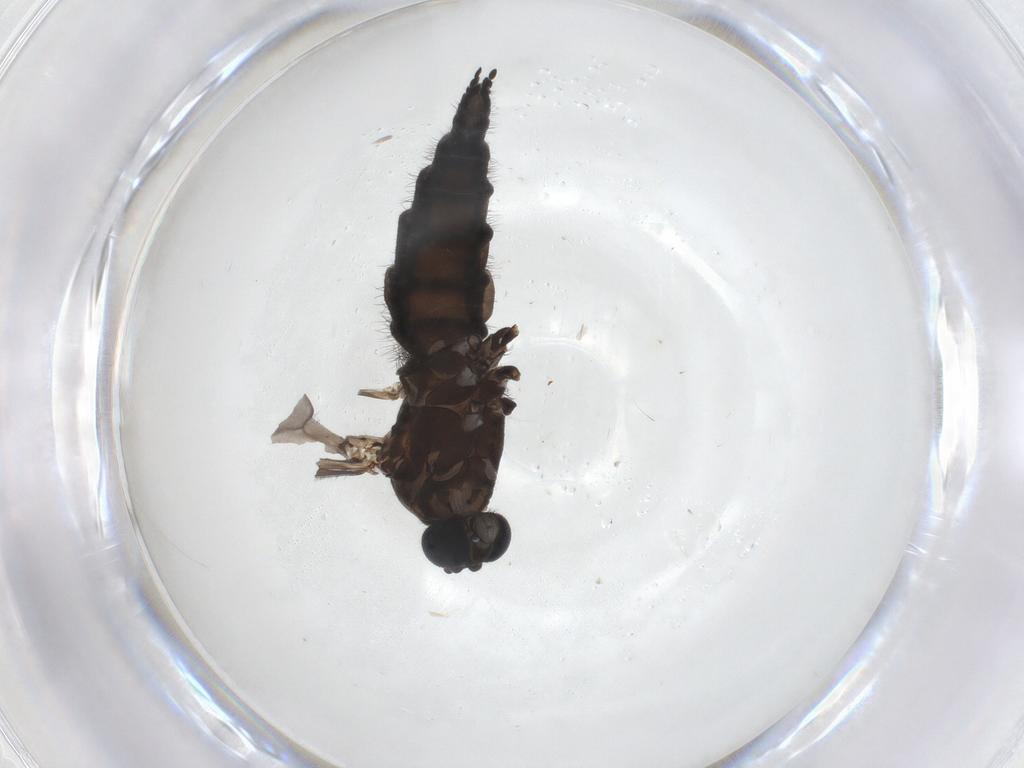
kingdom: Animalia
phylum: Arthropoda
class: Insecta
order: Diptera
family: Sciaridae
